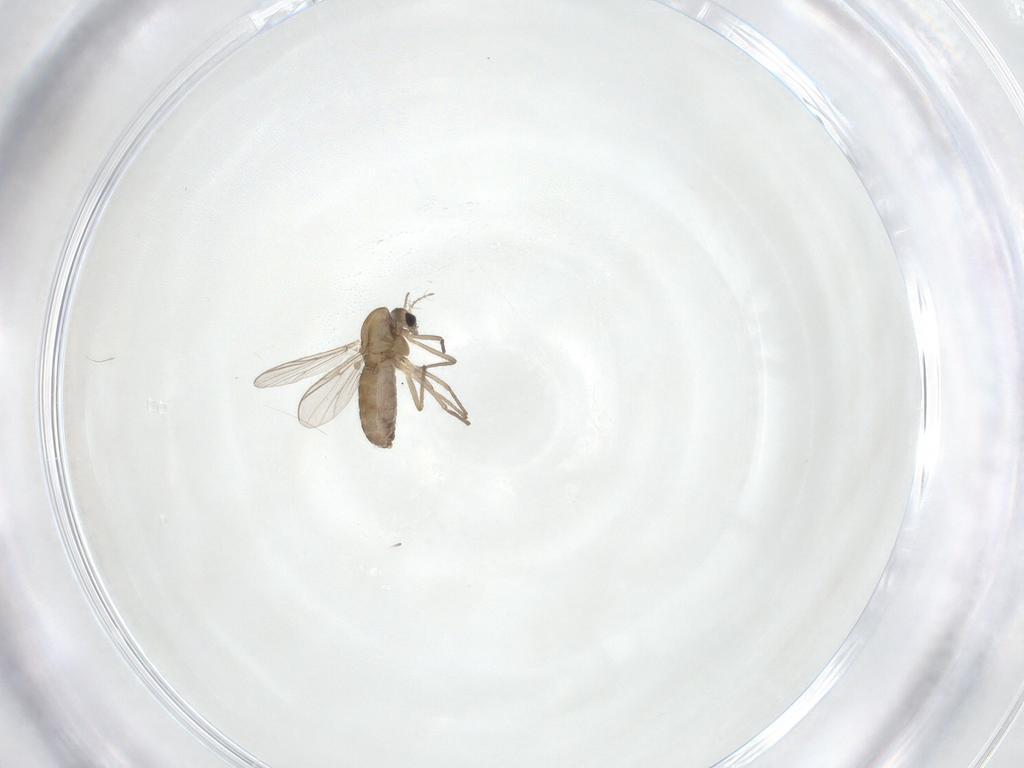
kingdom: Animalia
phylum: Arthropoda
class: Insecta
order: Diptera
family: Chironomidae
